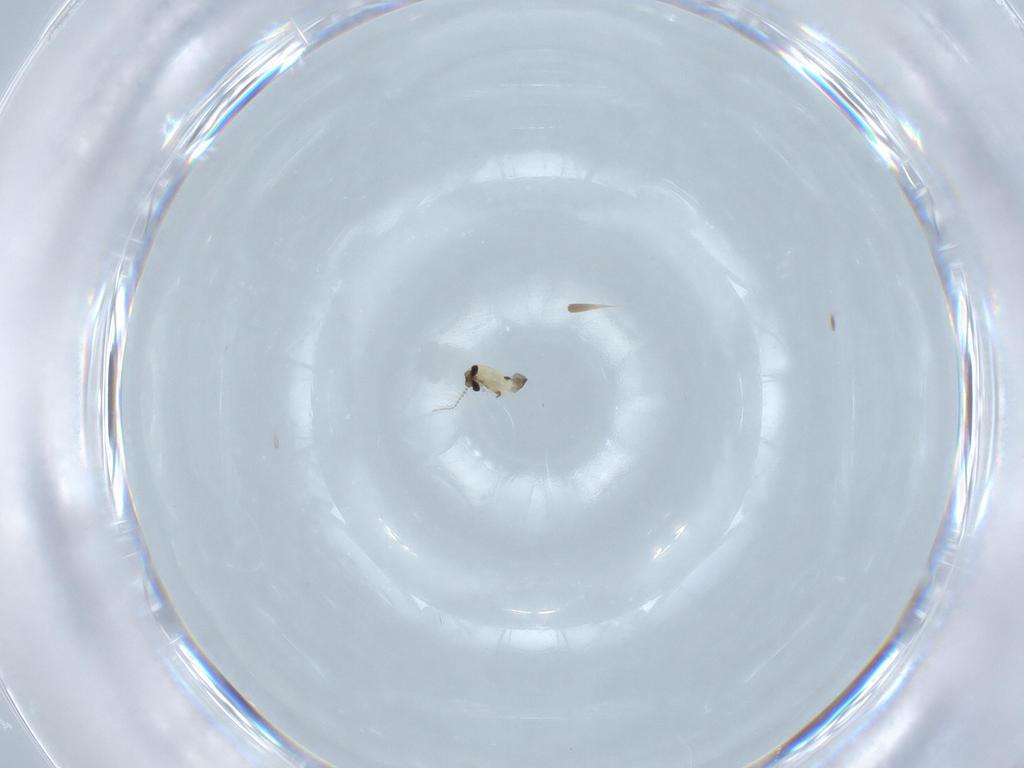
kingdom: Animalia
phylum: Arthropoda
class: Insecta
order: Diptera
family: Chironomidae
